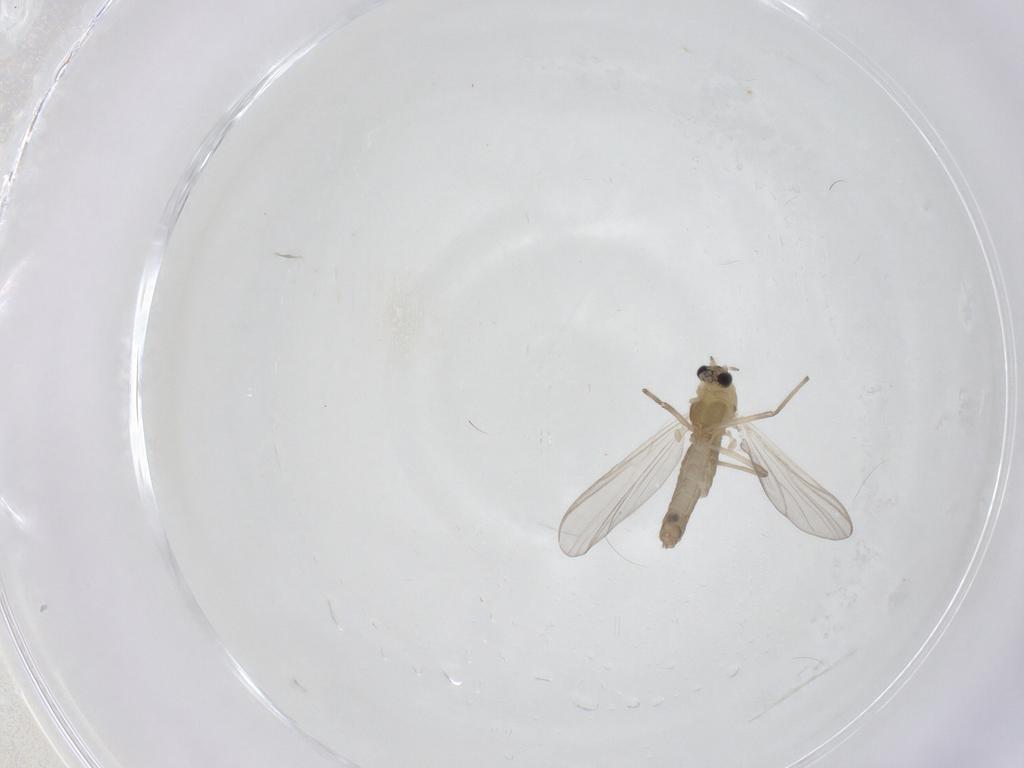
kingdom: Animalia
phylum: Arthropoda
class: Insecta
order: Diptera
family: Chironomidae
